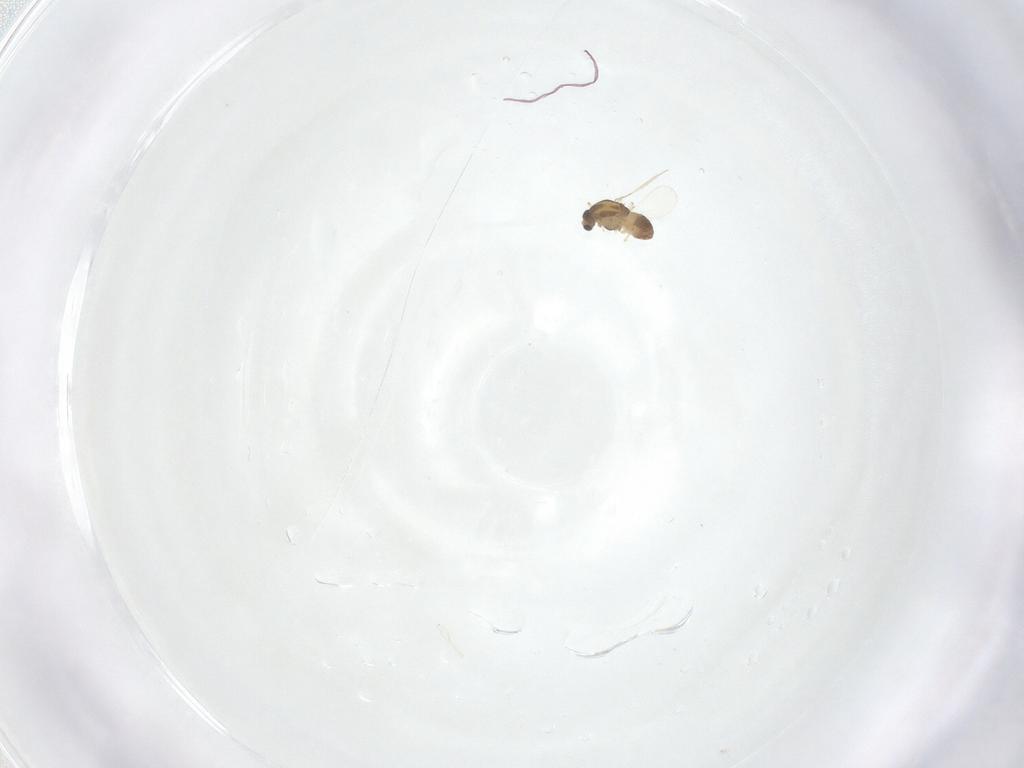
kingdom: Animalia
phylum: Arthropoda
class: Insecta
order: Diptera
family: Chironomidae
